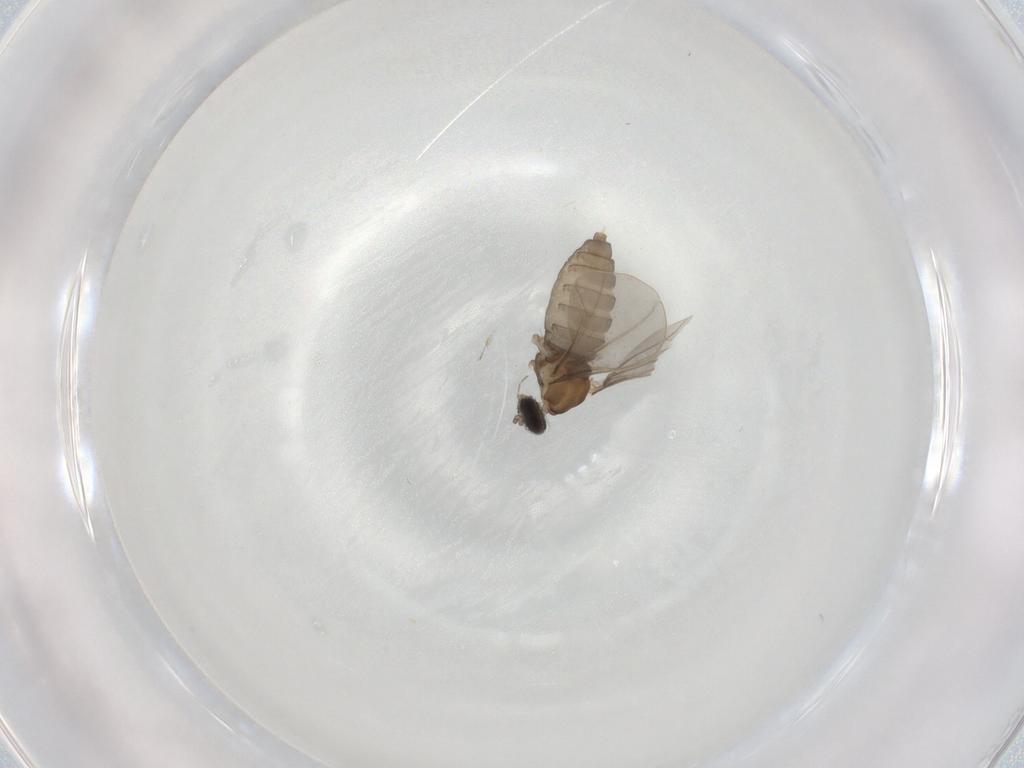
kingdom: Animalia
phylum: Arthropoda
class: Insecta
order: Diptera
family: Cecidomyiidae
